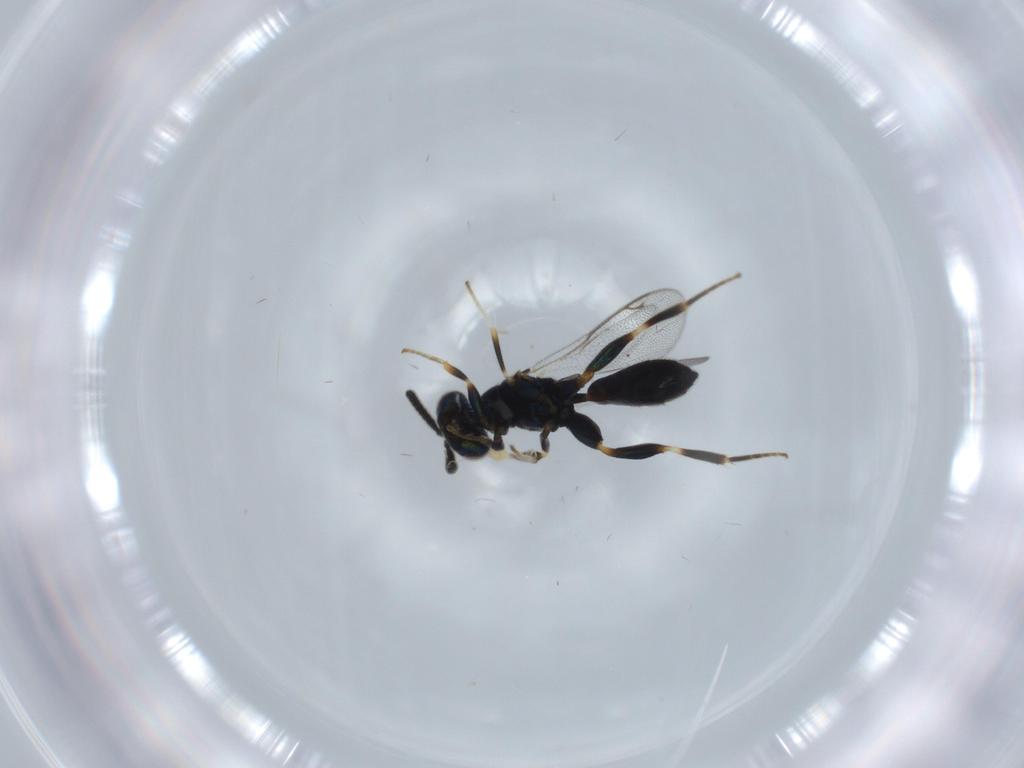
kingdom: Animalia
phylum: Arthropoda
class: Insecta
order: Hymenoptera
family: Cleonyminae
